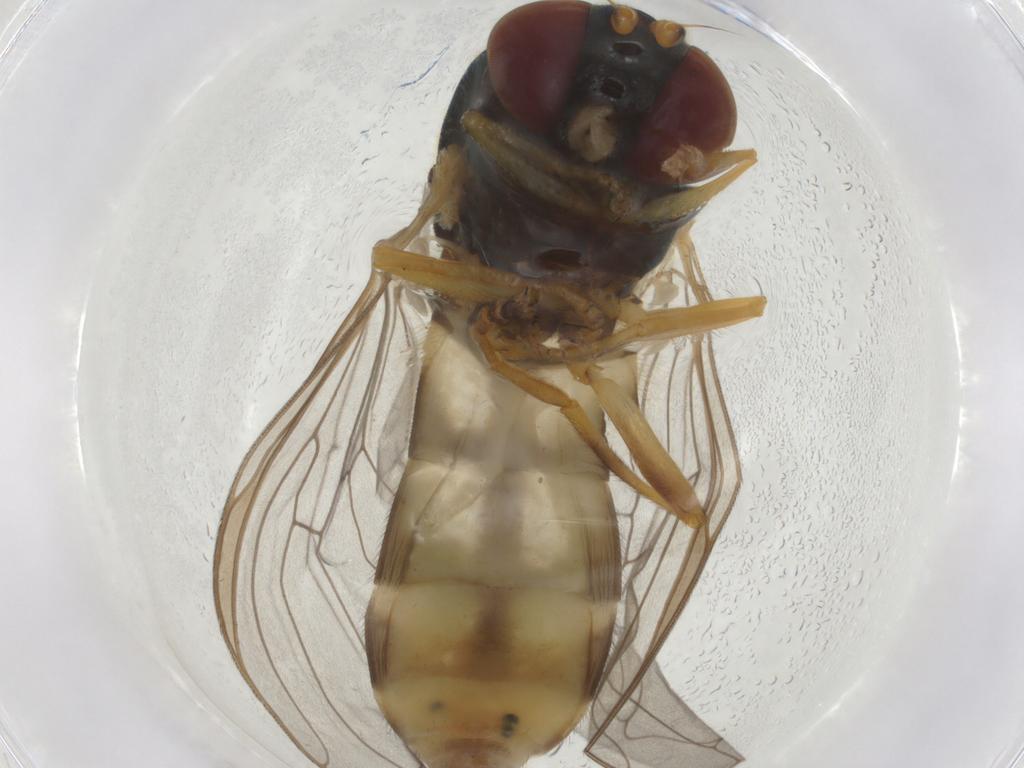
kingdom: Animalia
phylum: Arthropoda
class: Insecta
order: Diptera
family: Syrphidae
